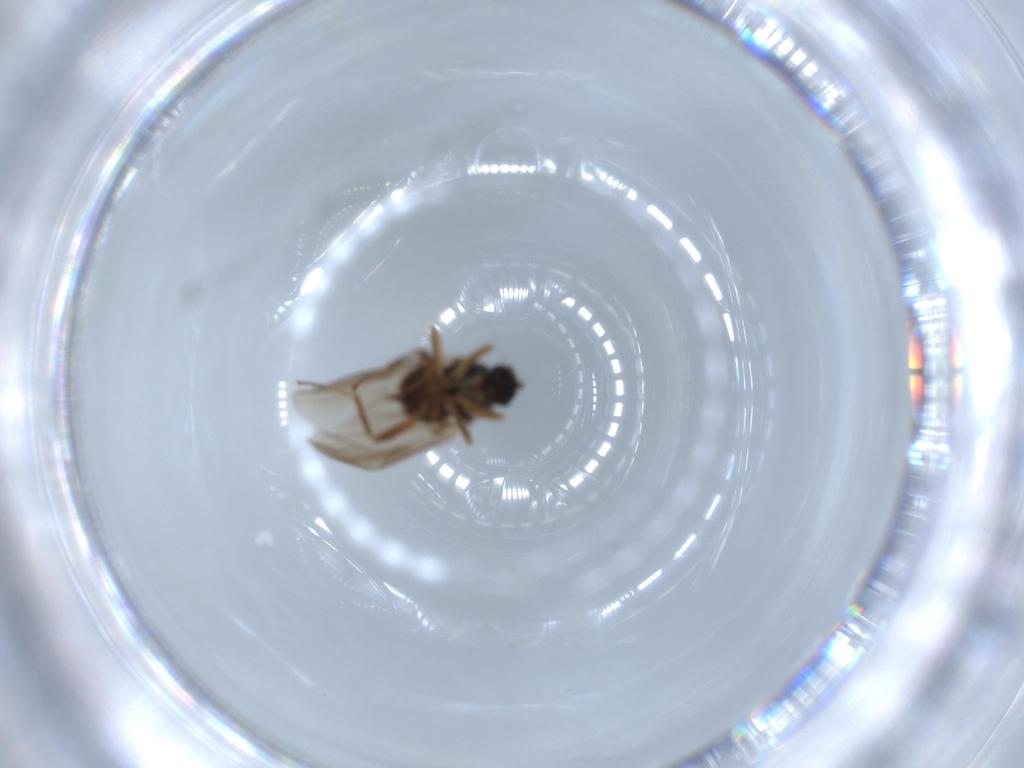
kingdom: Animalia
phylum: Arthropoda
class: Insecta
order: Diptera
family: Hybotidae
